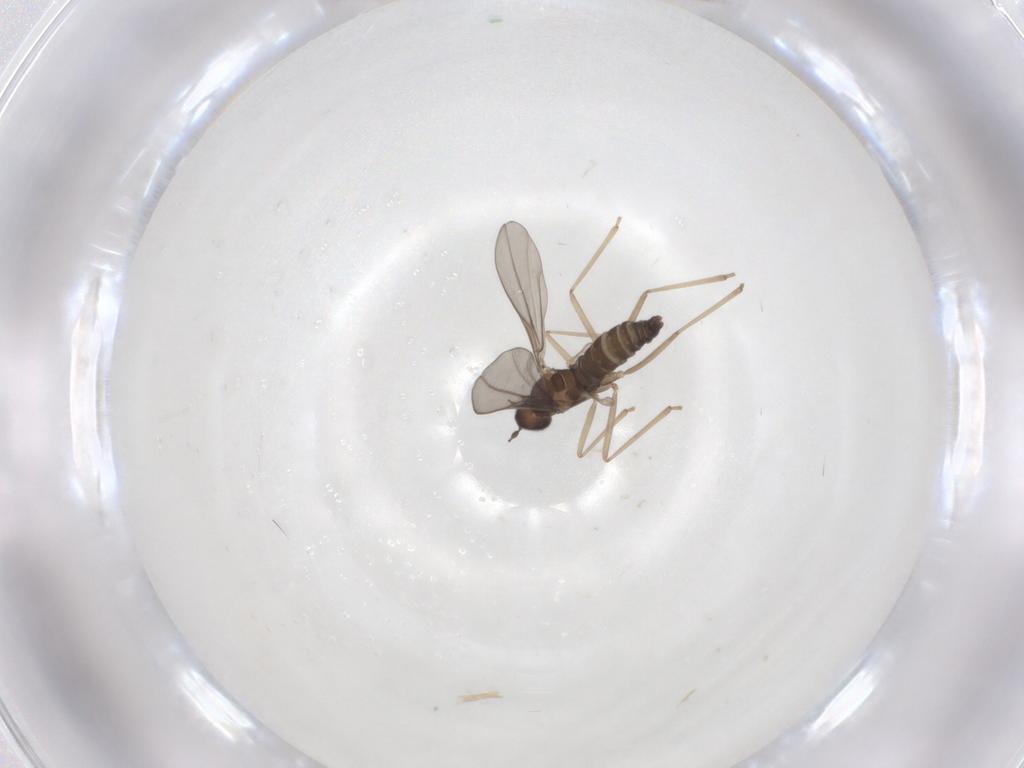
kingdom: Animalia
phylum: Arthropoda
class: Insecta
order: Diptera
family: Cecidomyiidae
